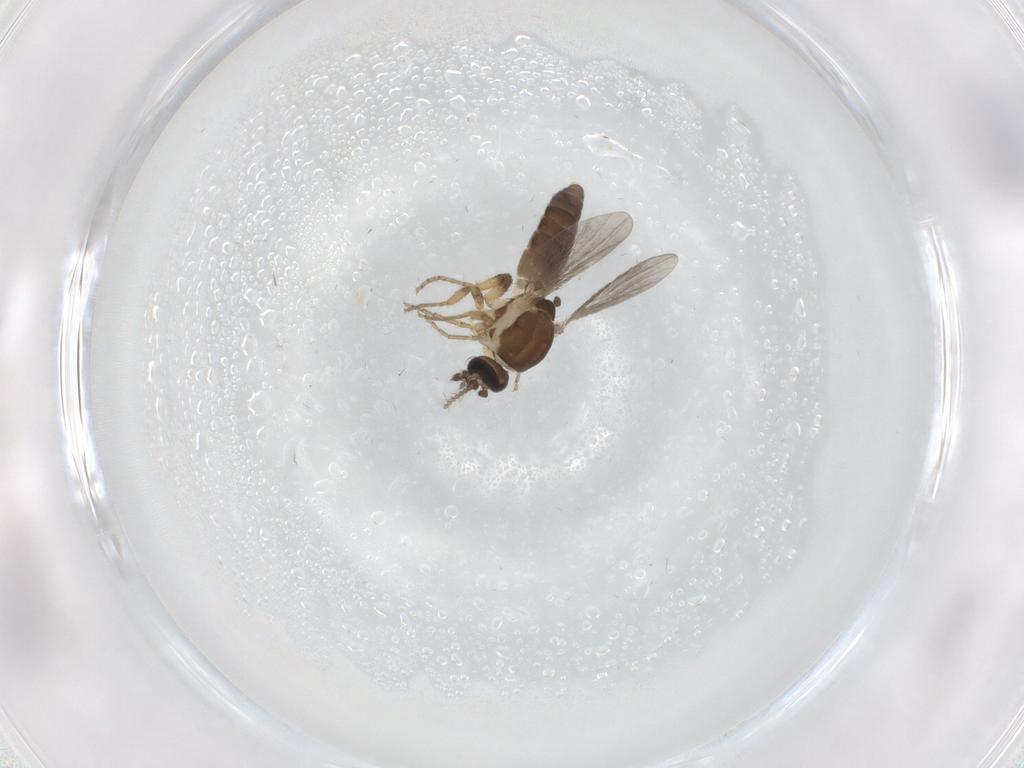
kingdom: Animalia
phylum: Arthropoda
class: Insecta
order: Diptera
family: Ceratopogonidae
